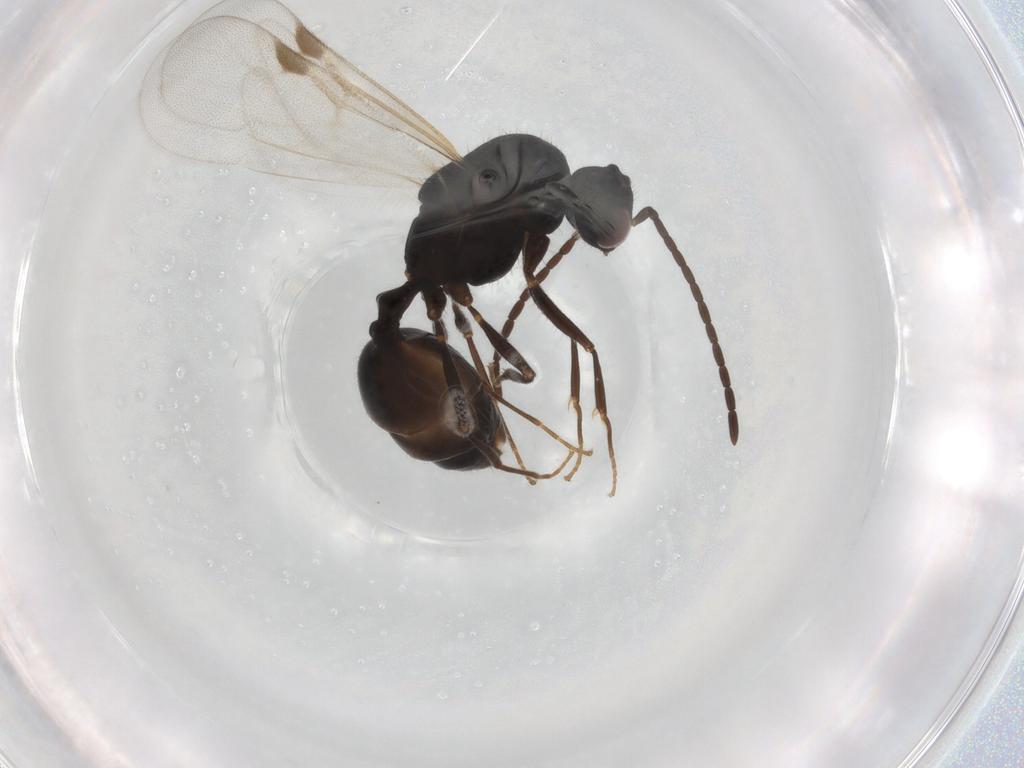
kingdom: Animalia
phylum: Arthropoda
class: Insecta
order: Hymenoptera
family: Formicidae
